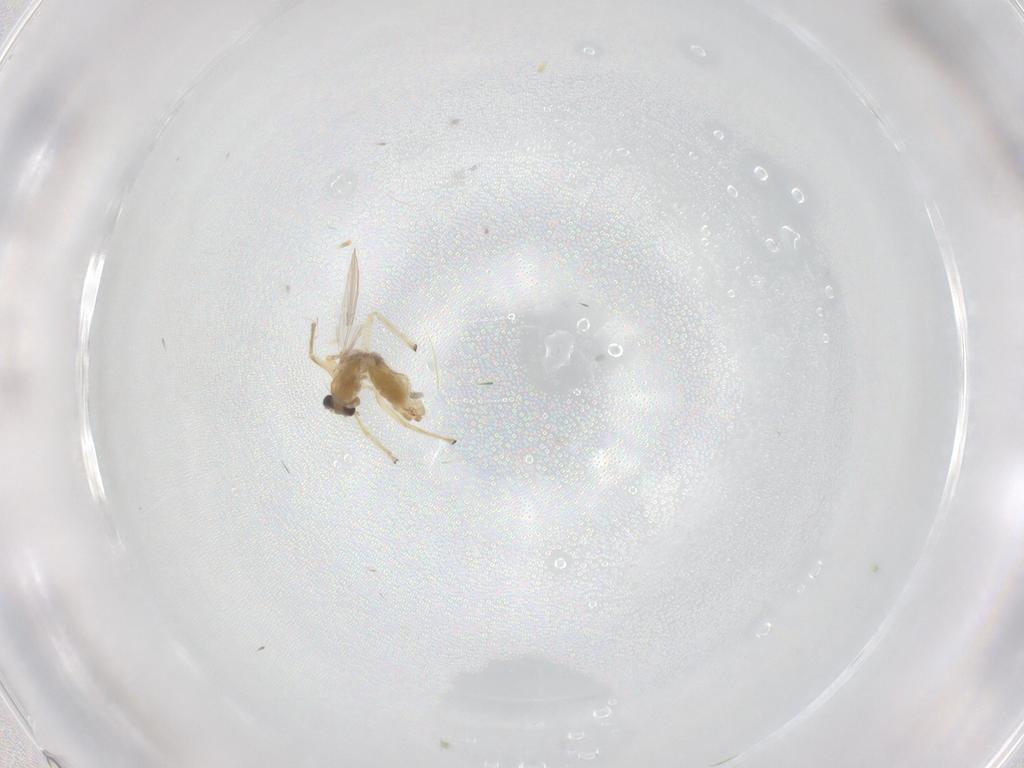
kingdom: Animalia
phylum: Arthropoda
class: Insecta
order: Diptera
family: Chironomidae
